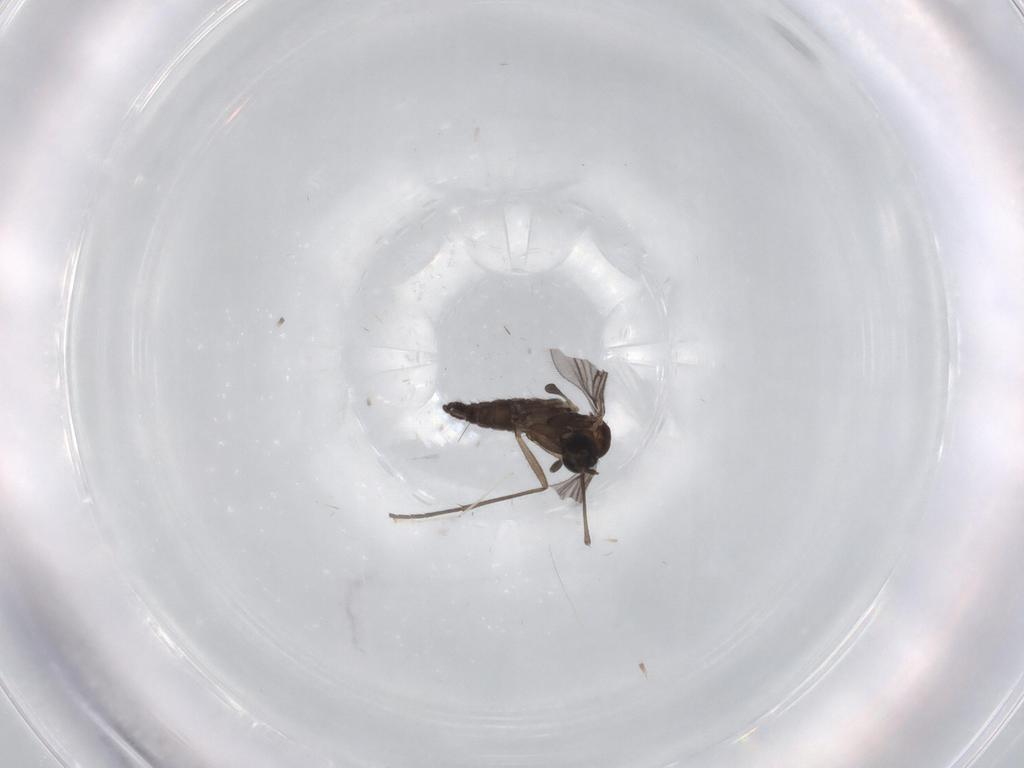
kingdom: Animalia
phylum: Arthropoda
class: Insecta
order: Diptera
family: Sciaridae
